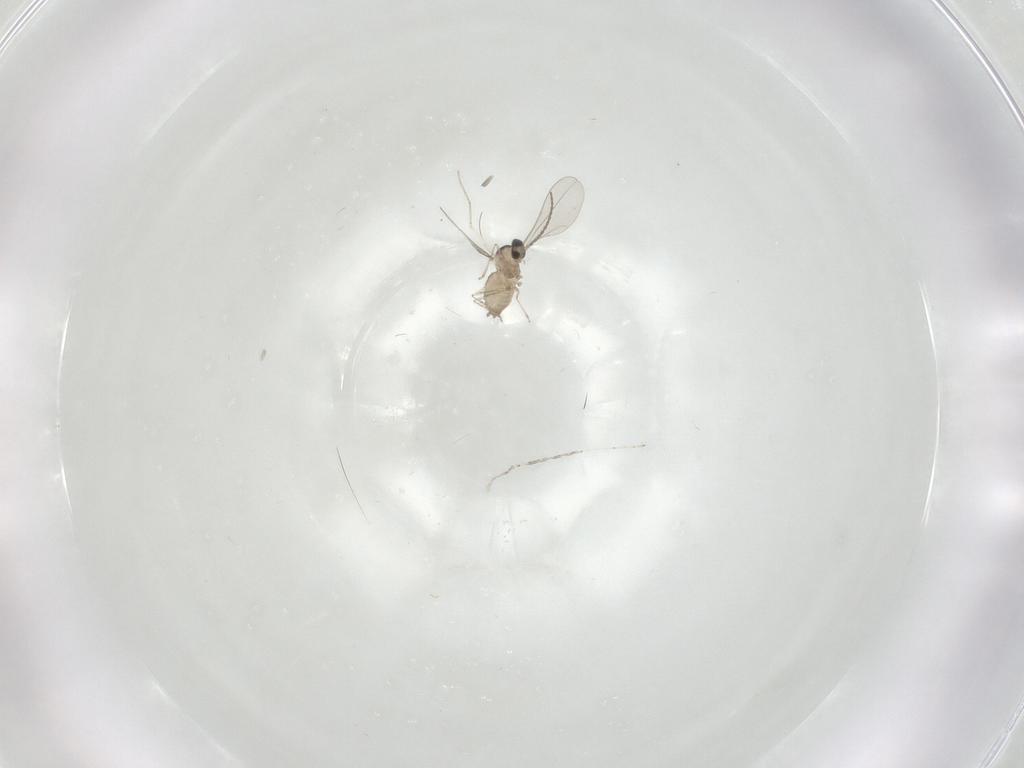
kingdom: Animalia
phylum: Arthropoda
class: Insecta
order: Diptera
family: Cecidomyiidae
